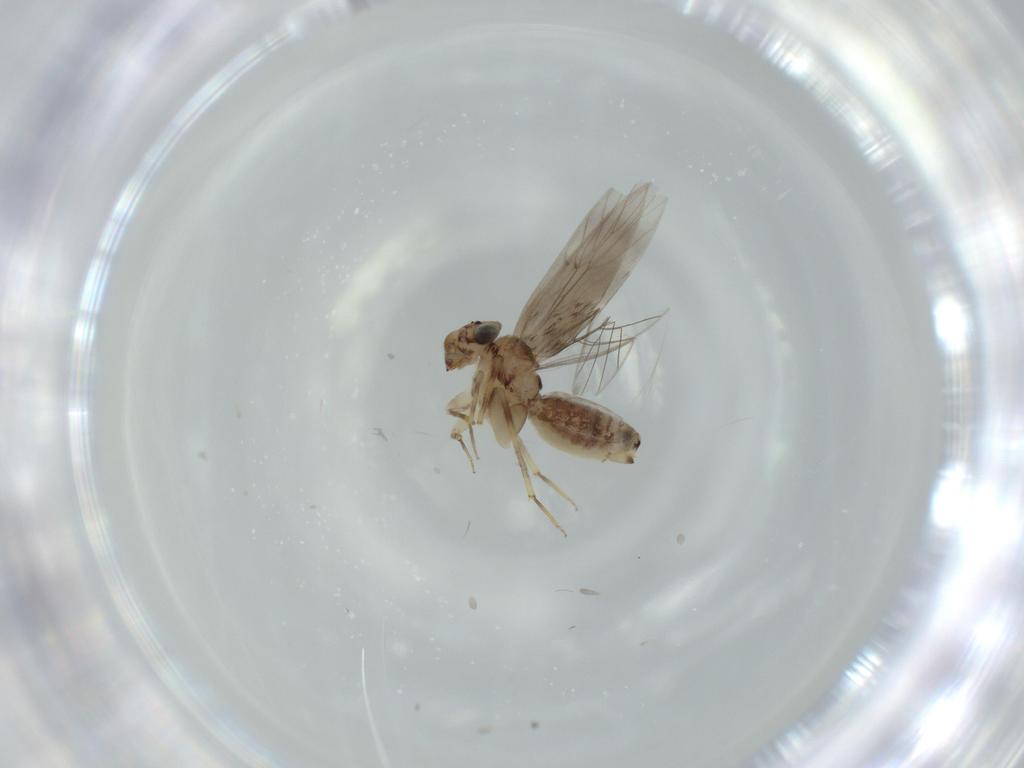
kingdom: Animalia
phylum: Arthropoda
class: Insecta
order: Psocodea
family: Lepidopsocidae
